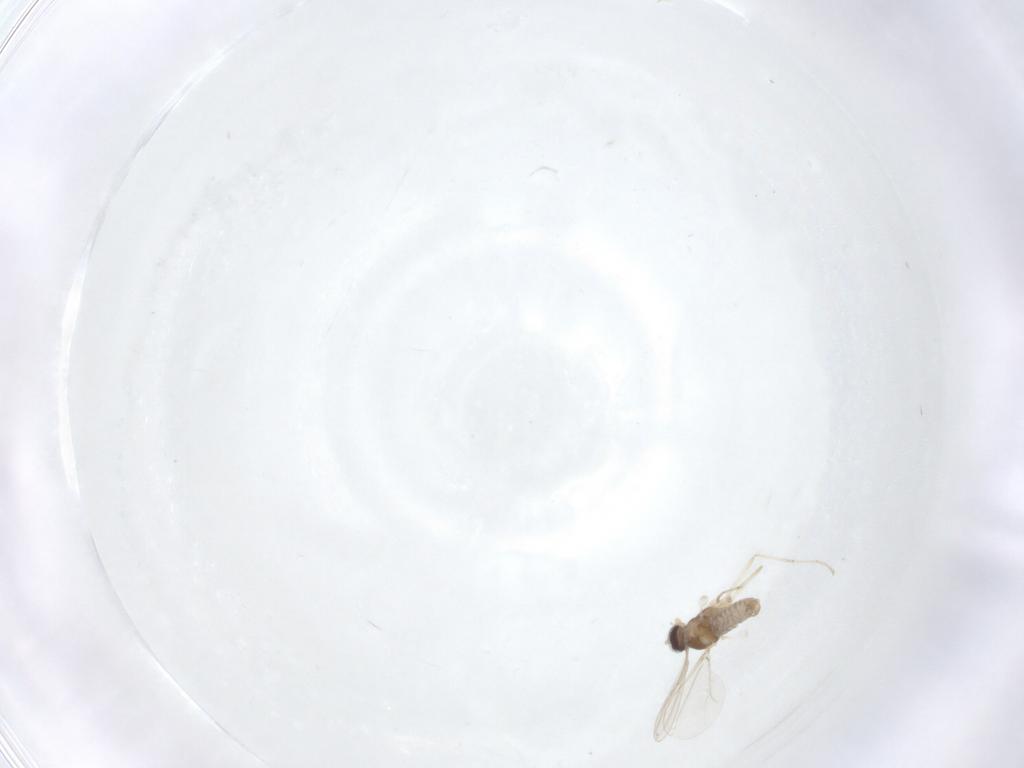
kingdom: Animalia
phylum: Arthropoda
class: Insecta
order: Diptera
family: Cecidomyiidae
